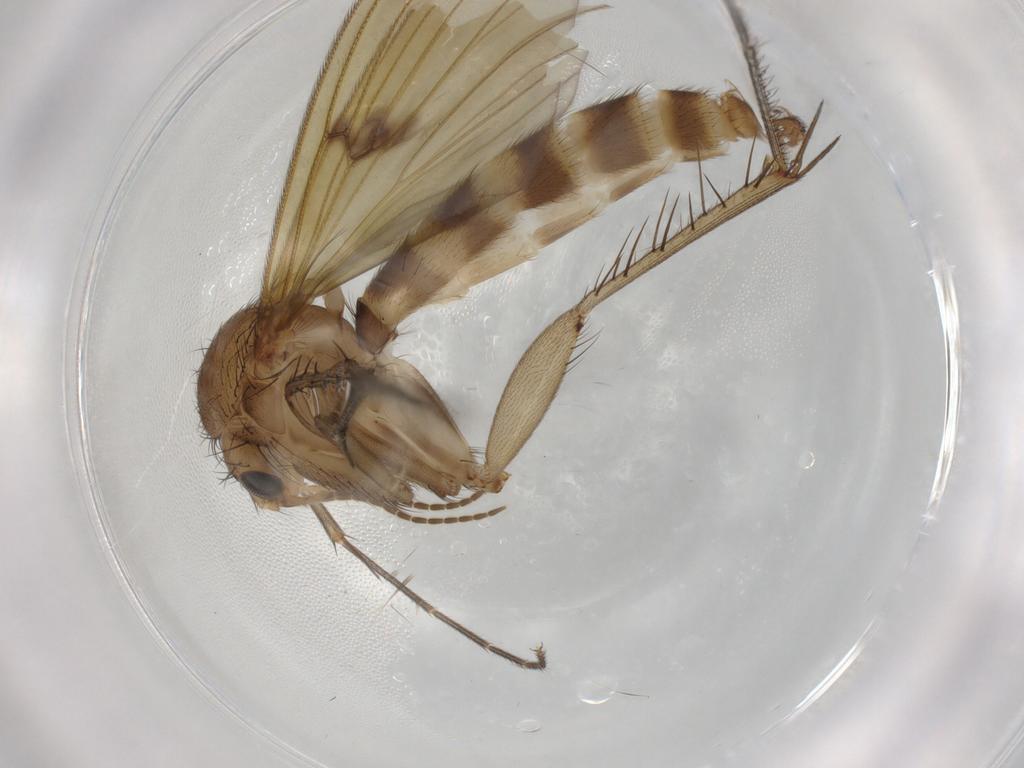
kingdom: Animalia
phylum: Arthropoda
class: Insecta
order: Diptera
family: Mycetophilidae
